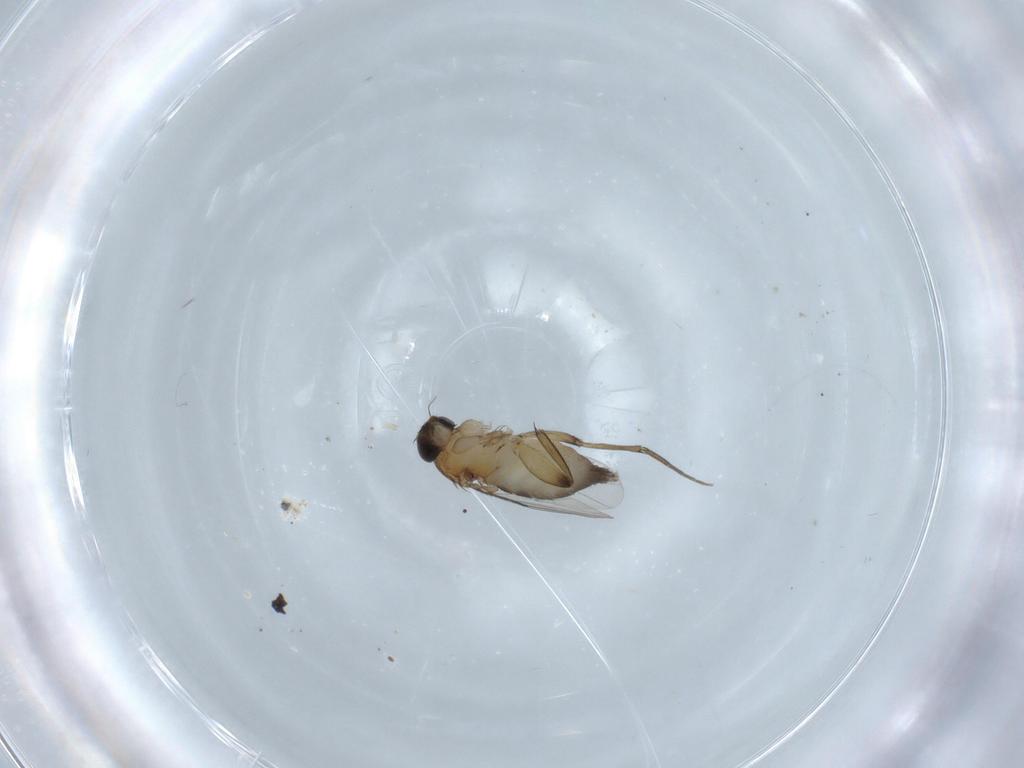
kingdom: Animalia
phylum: Arthropoda
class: Insecta
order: Diptera
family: Phoridae
